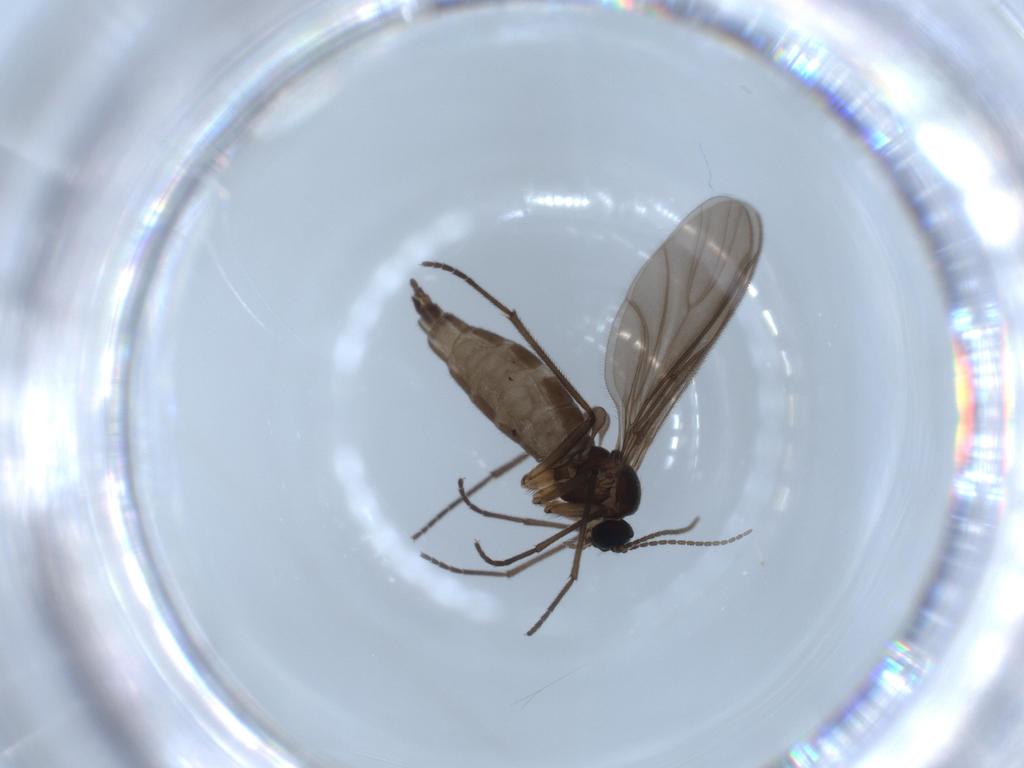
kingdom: Animalia
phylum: Arthropoda
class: Insecta
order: Diptera
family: Sciaridae
